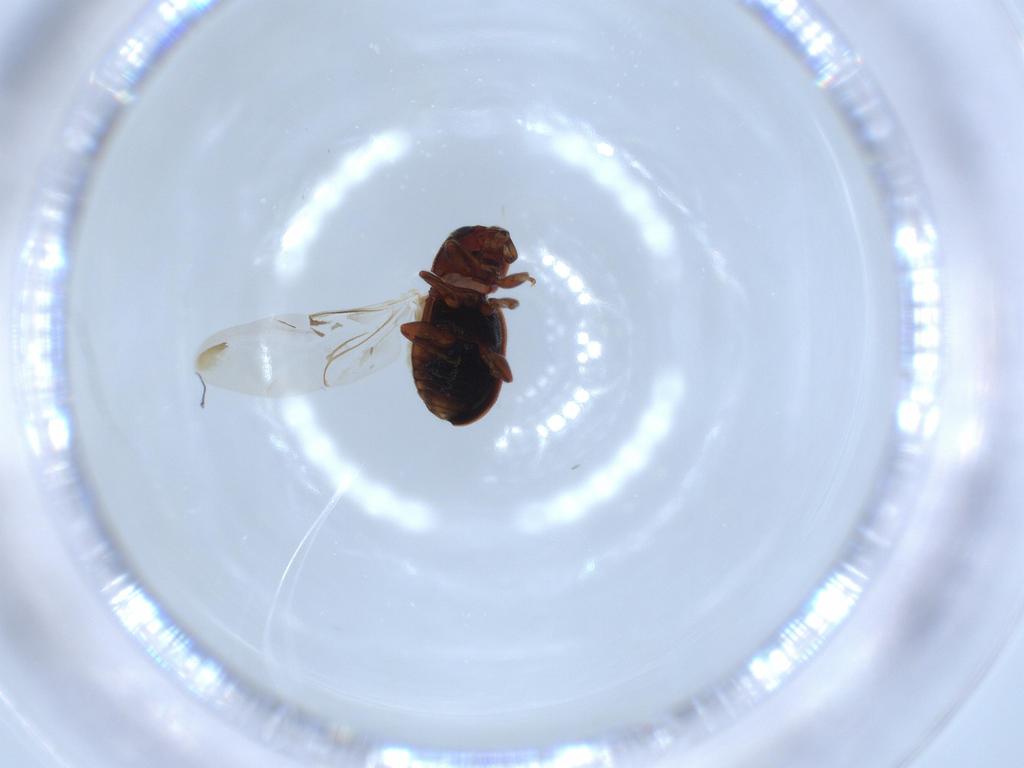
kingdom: Animalia
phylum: Arthropoda
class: Insecta
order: Coleoptera
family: Coccinellidae
